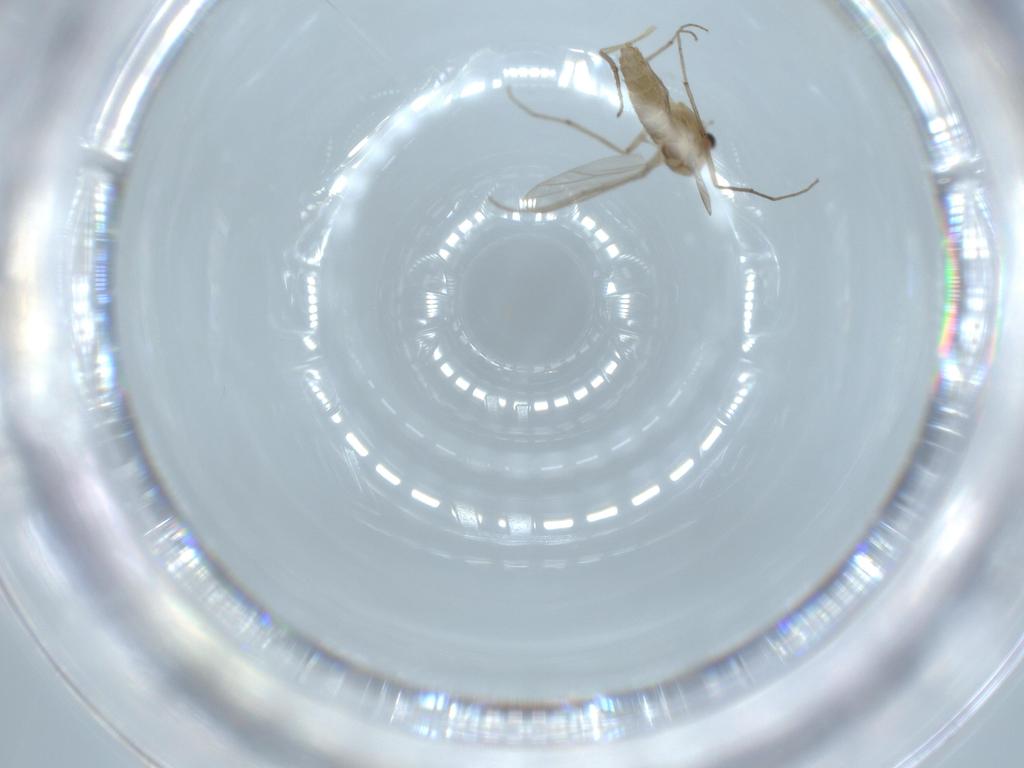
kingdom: Animalia
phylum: Arthropoda
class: Insecta
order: Diptera
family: Chironomidae
